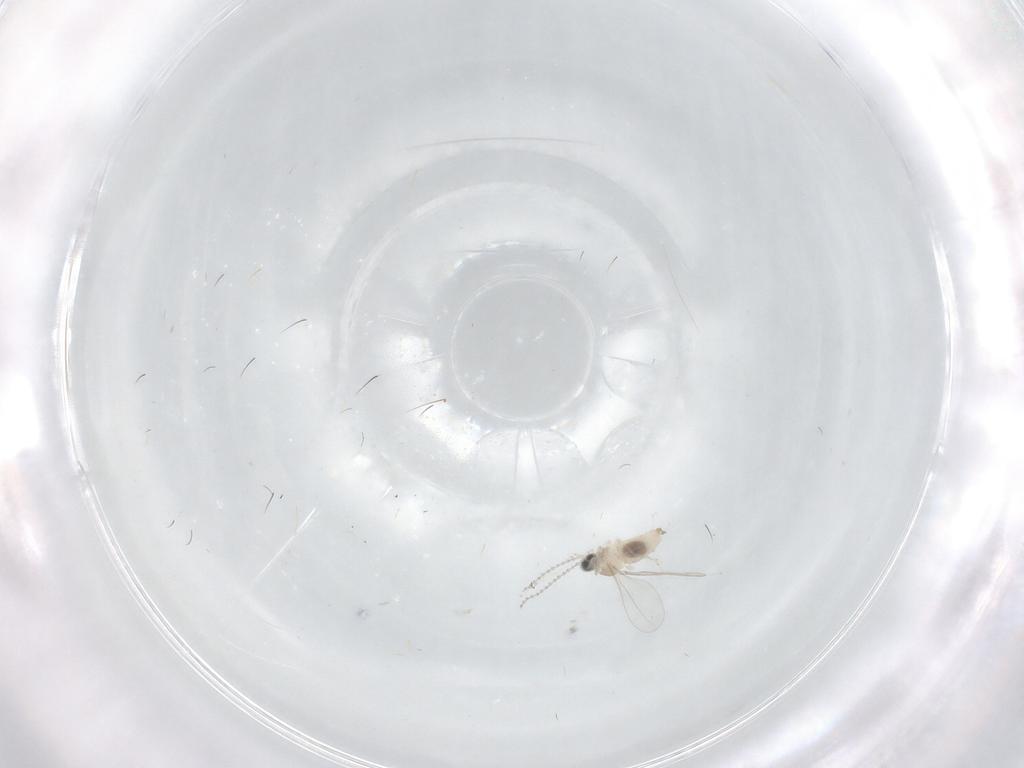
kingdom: Animalia
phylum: Arthropoda
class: Insecta
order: Diptera
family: Cecidomyiidae
